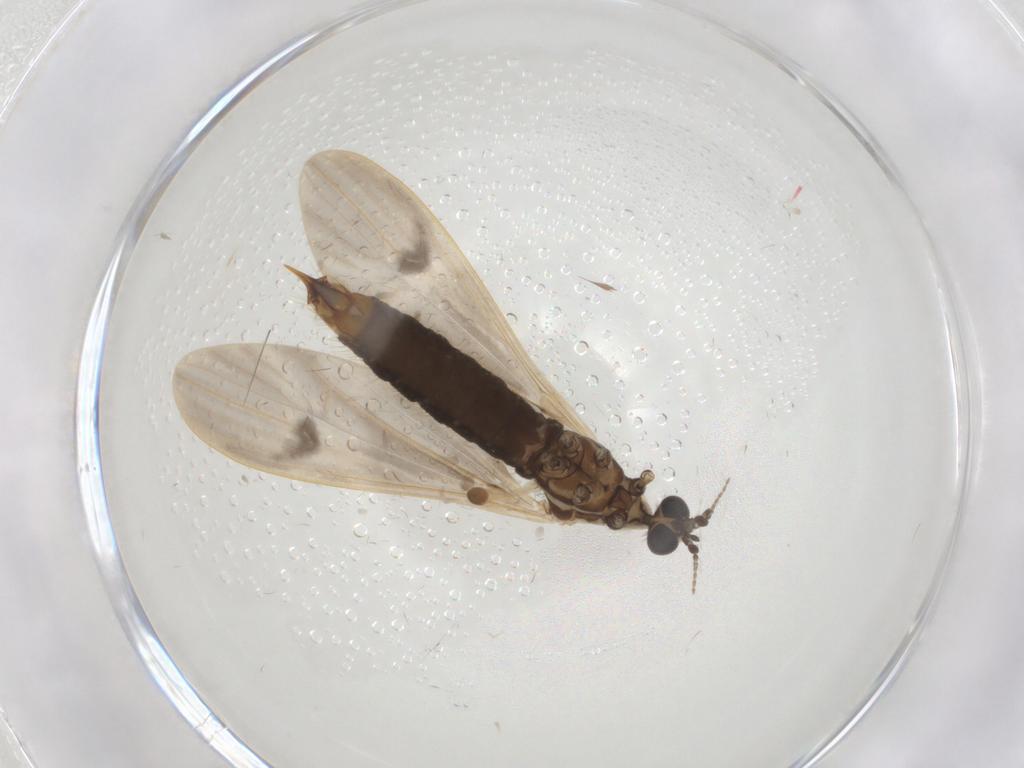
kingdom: Animalia
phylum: Arthropoda
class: Insecta
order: Diptera
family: Limoniidae
